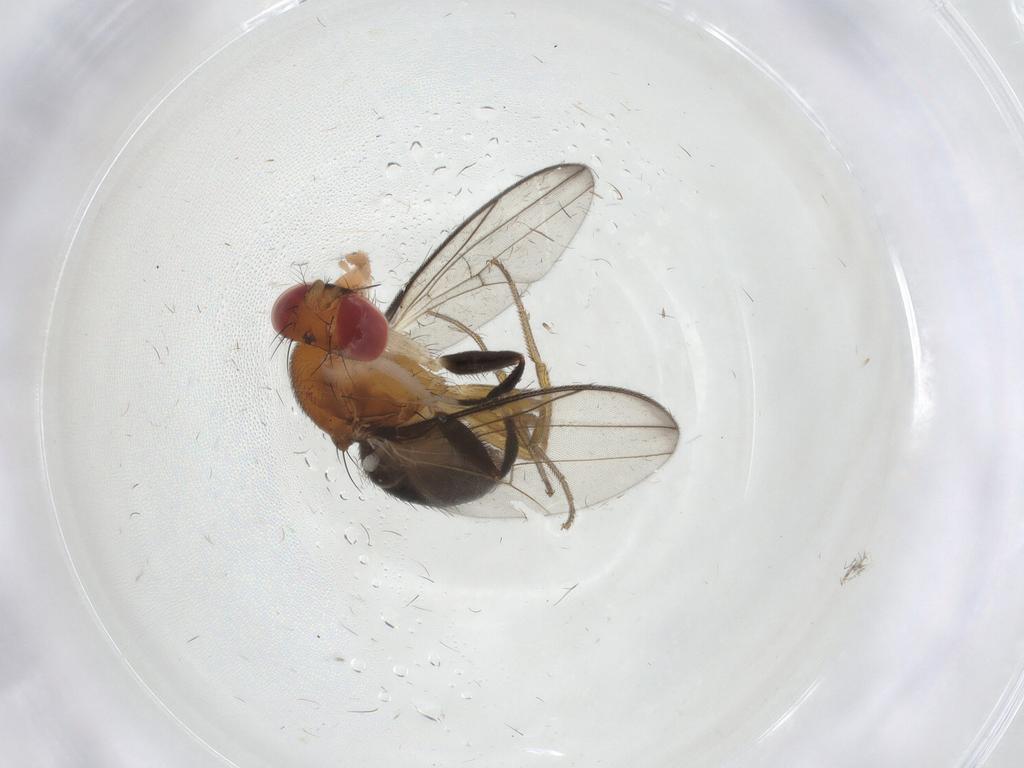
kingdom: Animalia
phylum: Arthropoda
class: Insecta
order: Diptera
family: Drosophilidae
